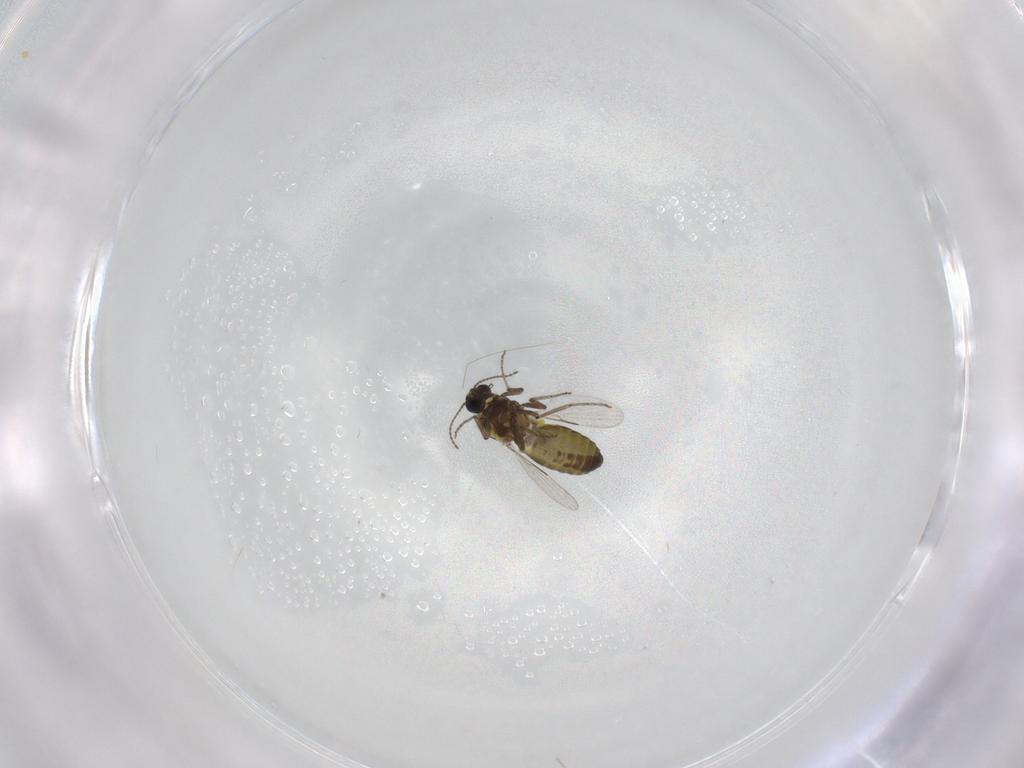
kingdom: Animalia
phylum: Arthropoda
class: Insecta
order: Diptera
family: Ceratopogonidae
